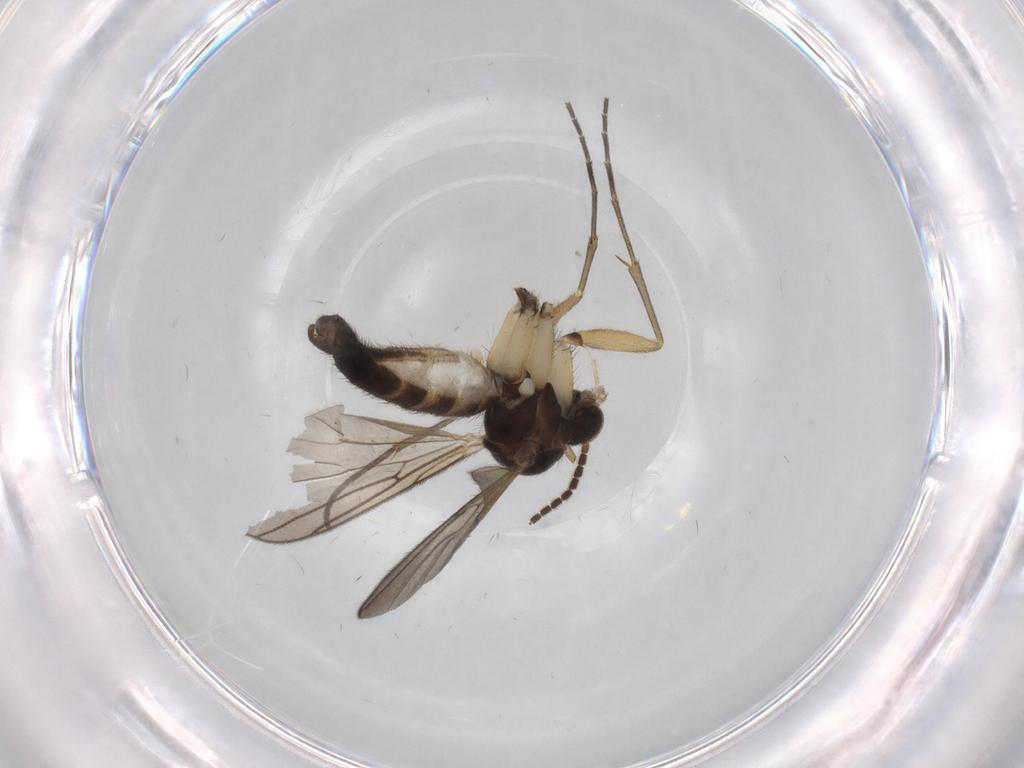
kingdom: Animalia
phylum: Arthropoda
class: Insecta
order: Diptera
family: Mycetophilidae
